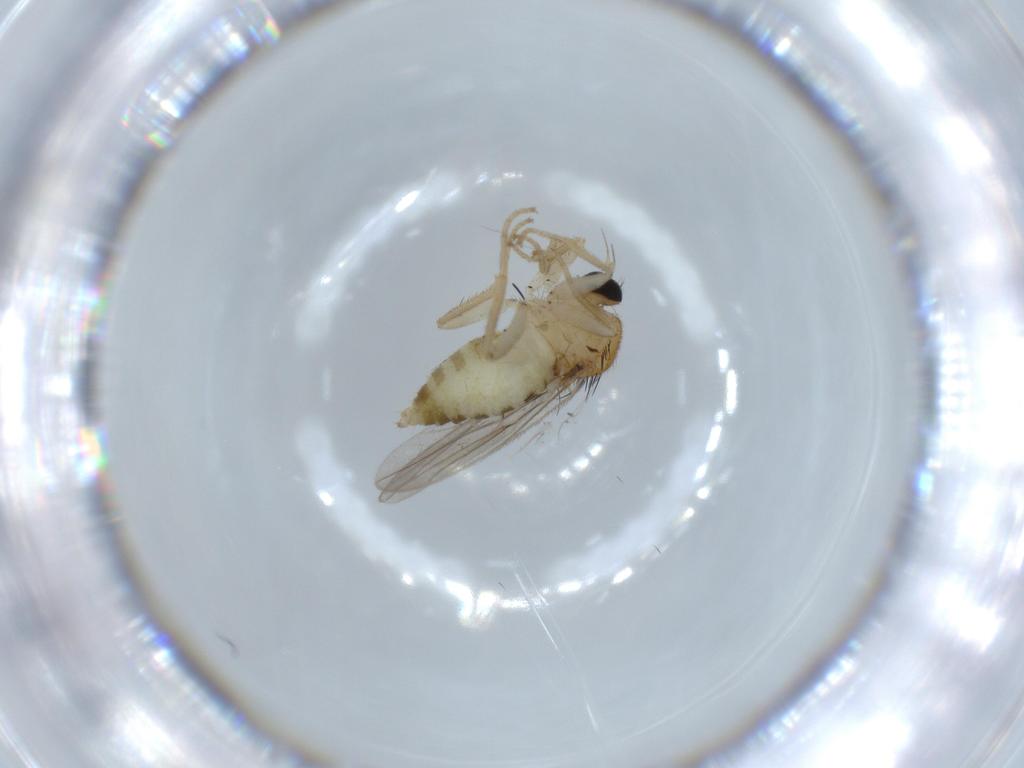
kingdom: Animalia
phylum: Arthropoda
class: Insecta
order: Diptera
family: Hybotidae
